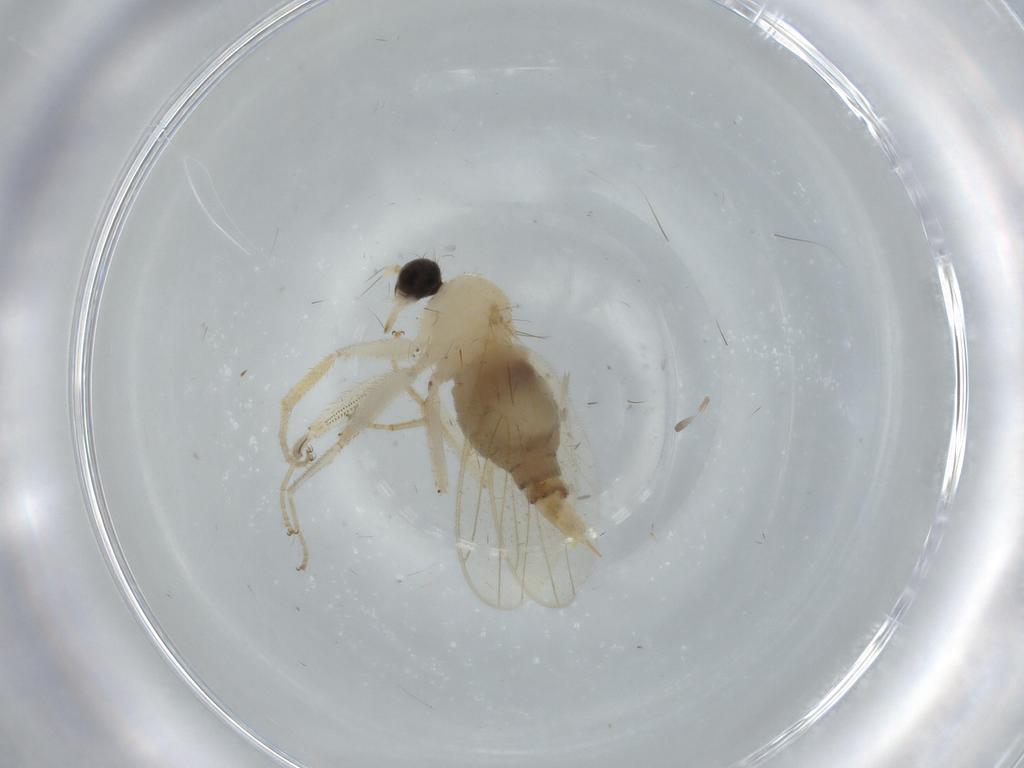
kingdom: Animalia
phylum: Arthropoda
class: Insecta
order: Diptera
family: Hybotidae
